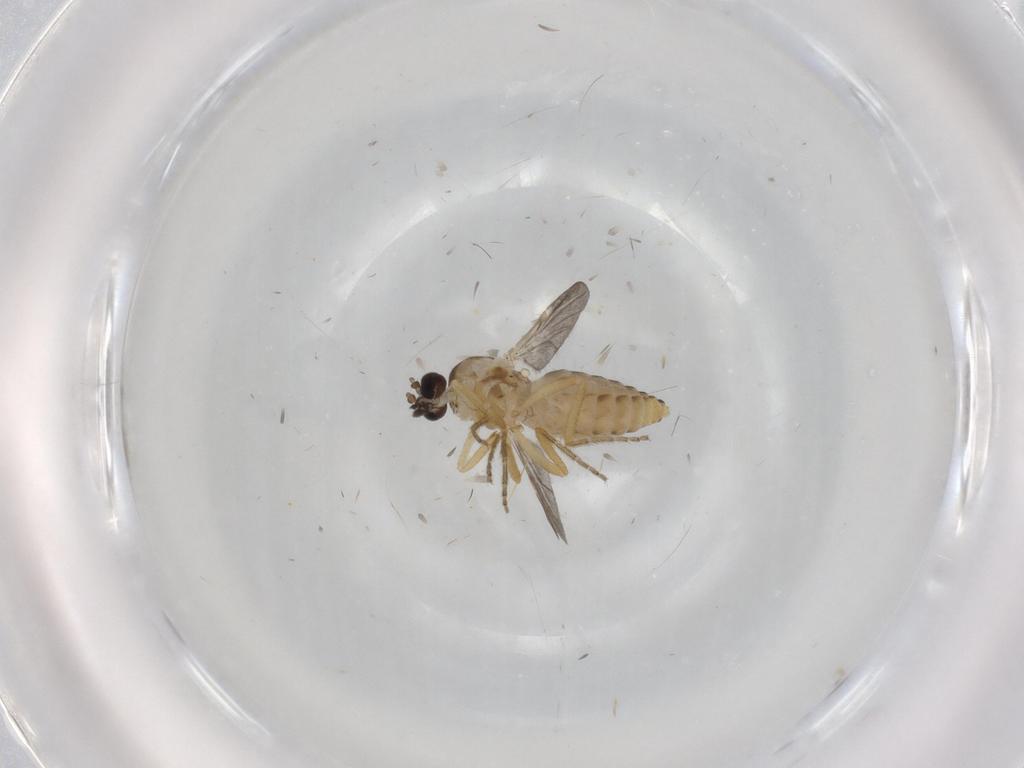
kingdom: Animalia
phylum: Arthropoda
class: Insecta
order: Diptera
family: Ceratopogonidae
